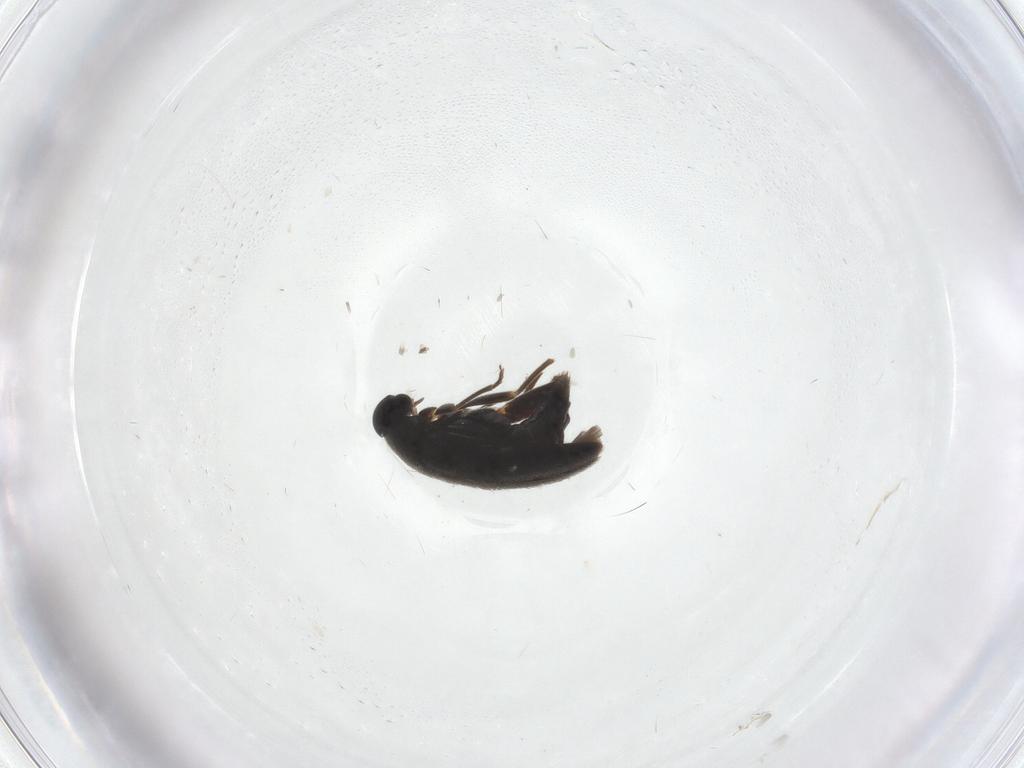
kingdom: Animalia
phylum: Arthropoda
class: Insecta
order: Coleoptera
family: Scraptiidae
